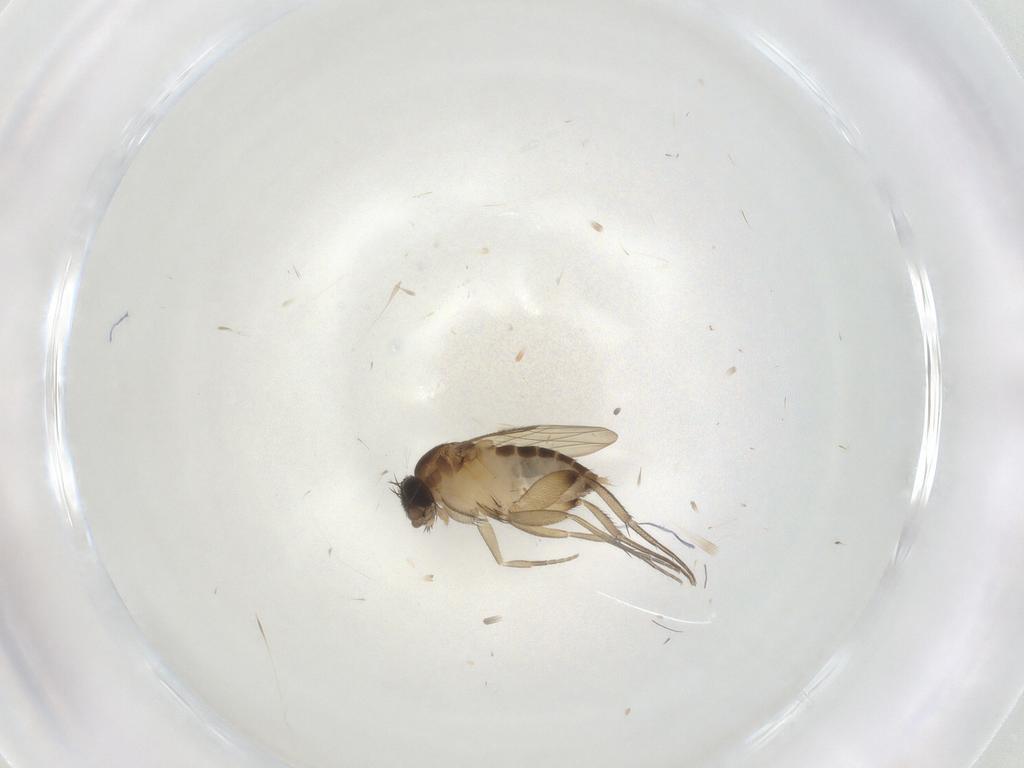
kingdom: Animalia
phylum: Arthropoda
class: Insecta
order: Diptera
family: Phoridae
